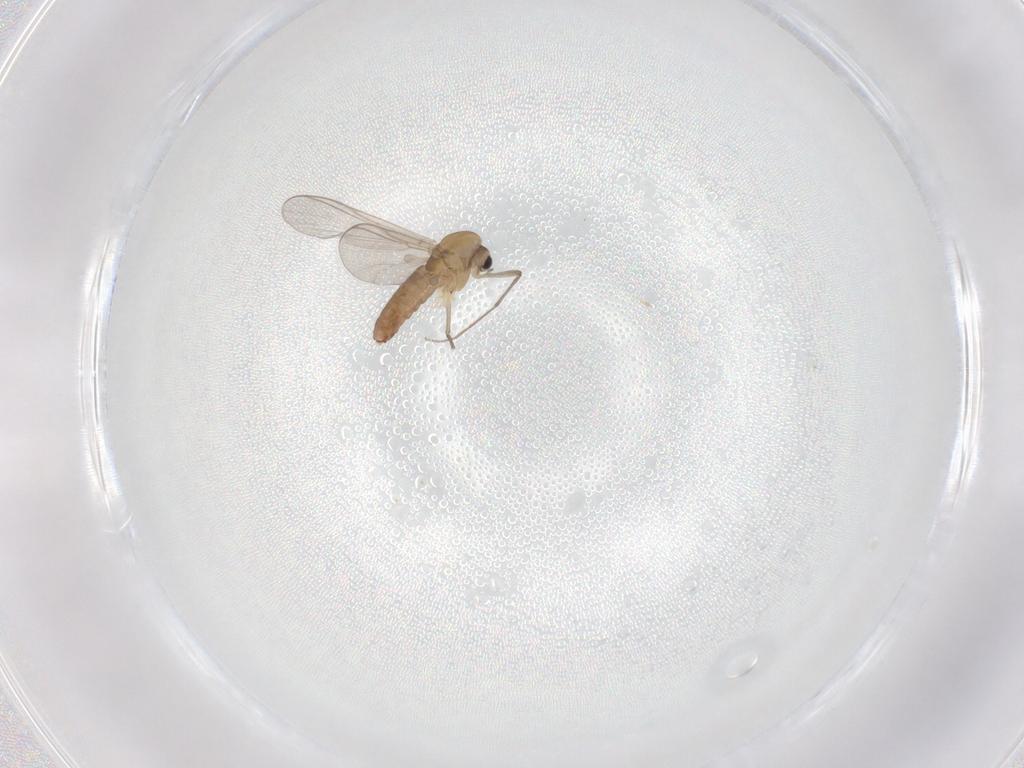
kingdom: Animalia
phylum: Arthropoda
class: Insecta
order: Diptera
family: Chironomidae
